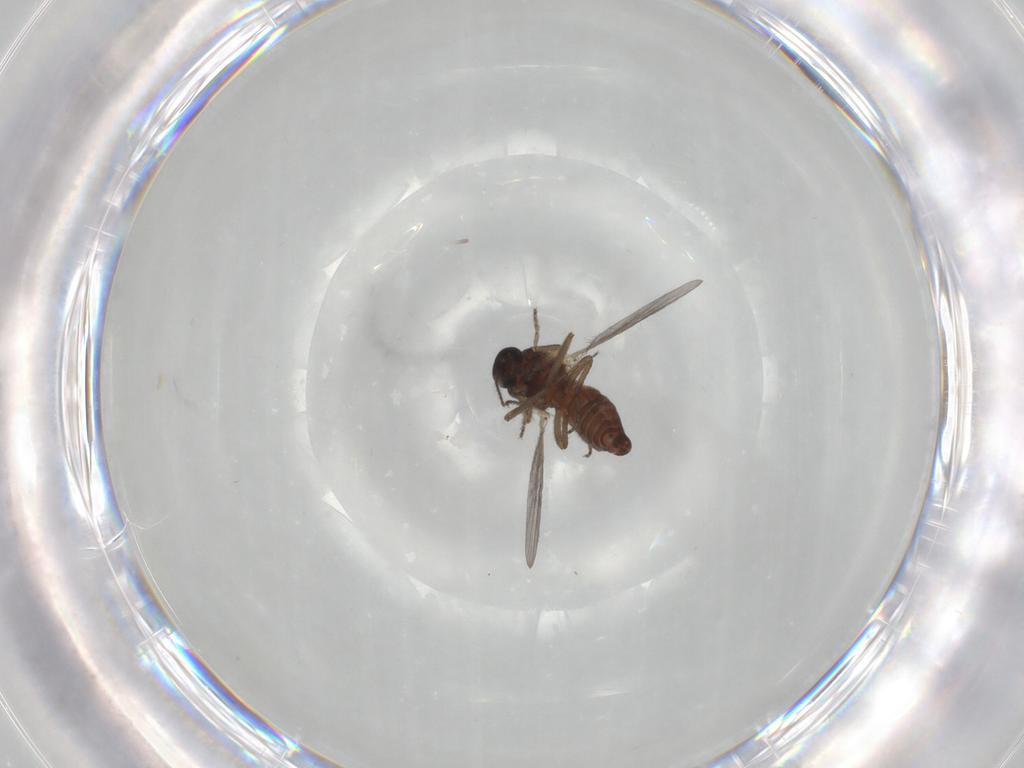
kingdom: Animalia
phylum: Arthropoda
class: Insecta
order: Diptera
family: Ceratopogonidae
